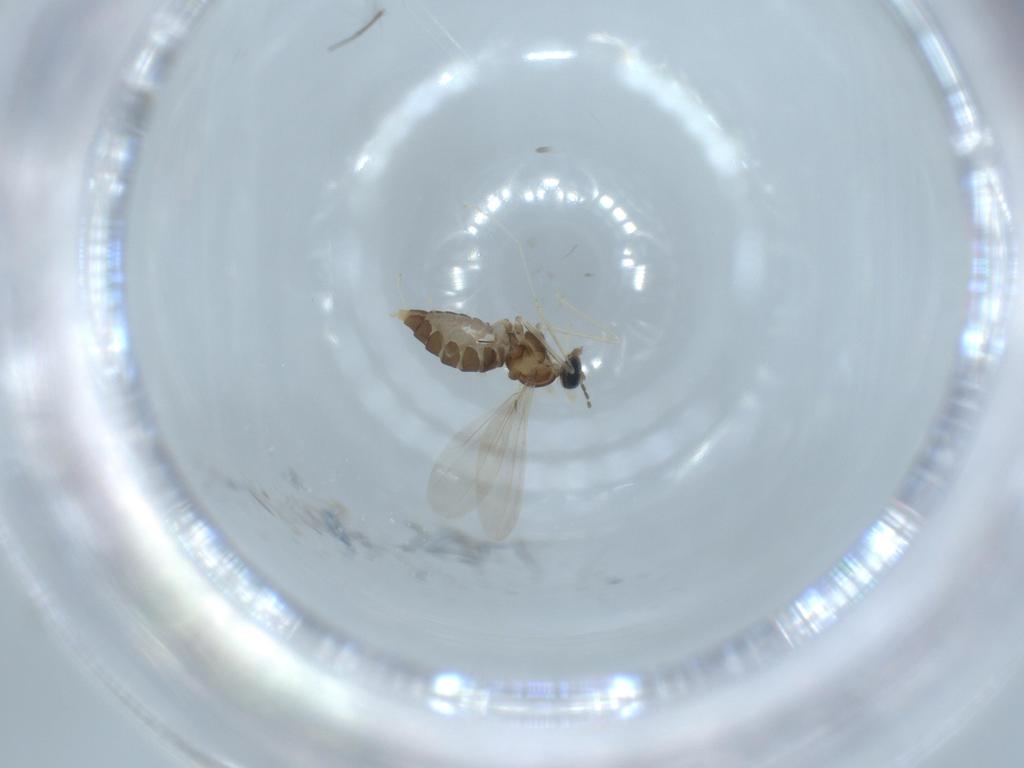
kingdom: Animalia
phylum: Arthropoda
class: Insecta
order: Diptera
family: Cecidomyiidae
